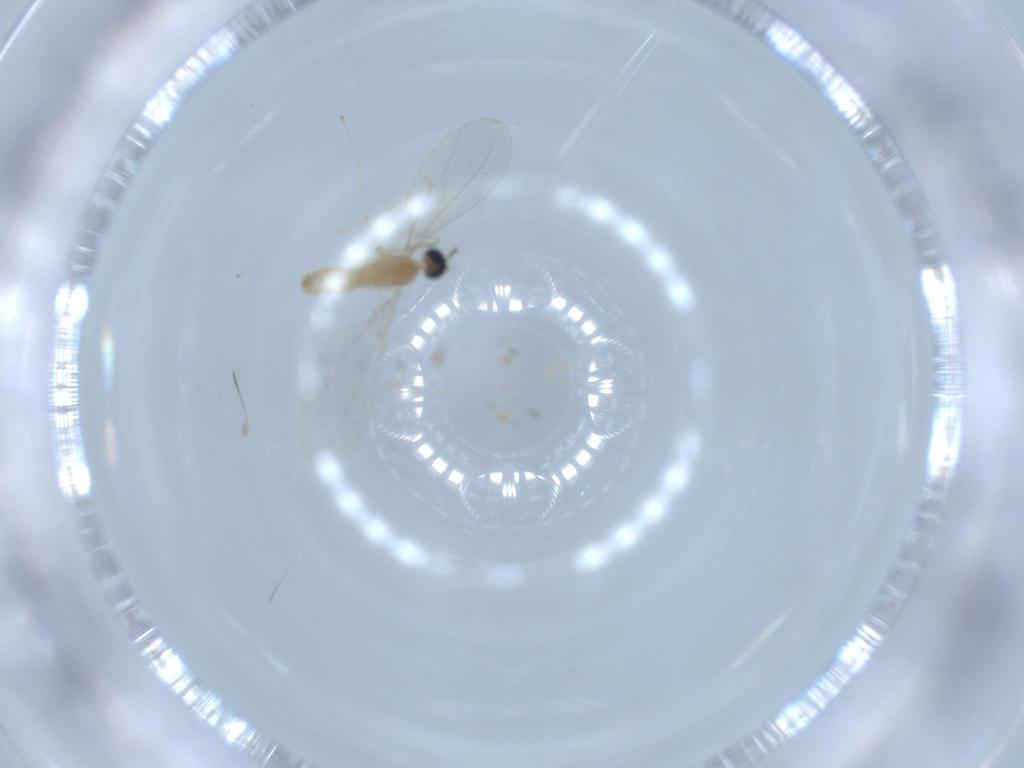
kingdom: Animalia
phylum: Arthropoda
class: Insecta
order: Diptera
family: Cecidomyiidae
